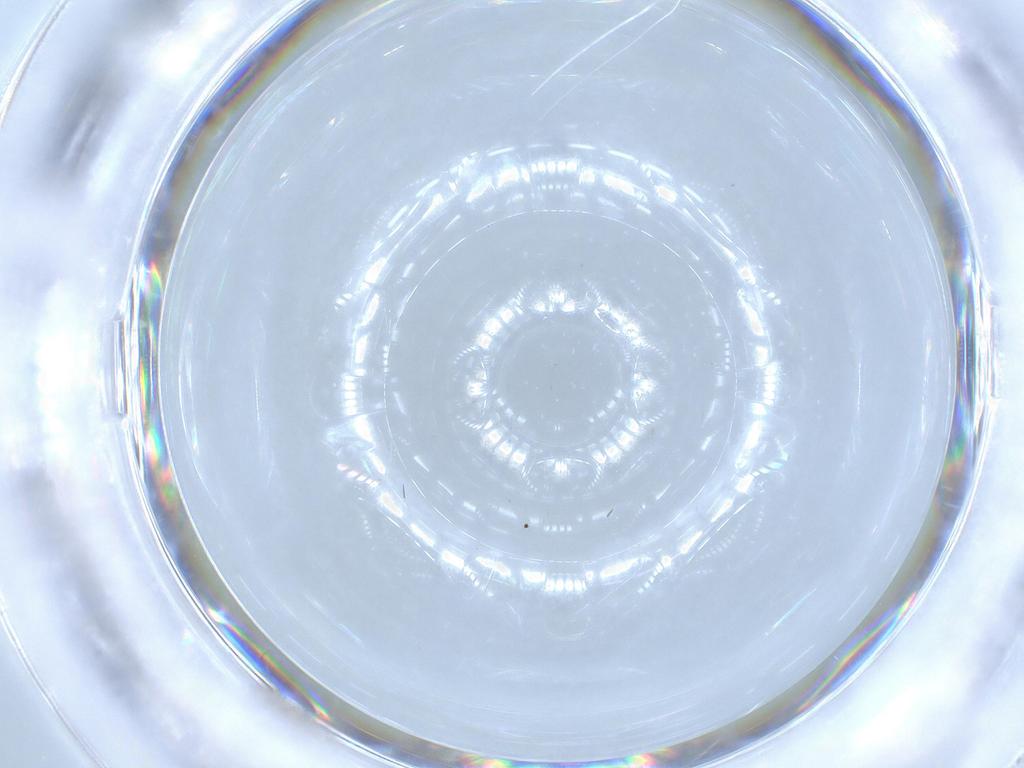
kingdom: Animalia
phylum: Arthropoda
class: Insecta
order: Diptera
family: Cecidomyiidae
